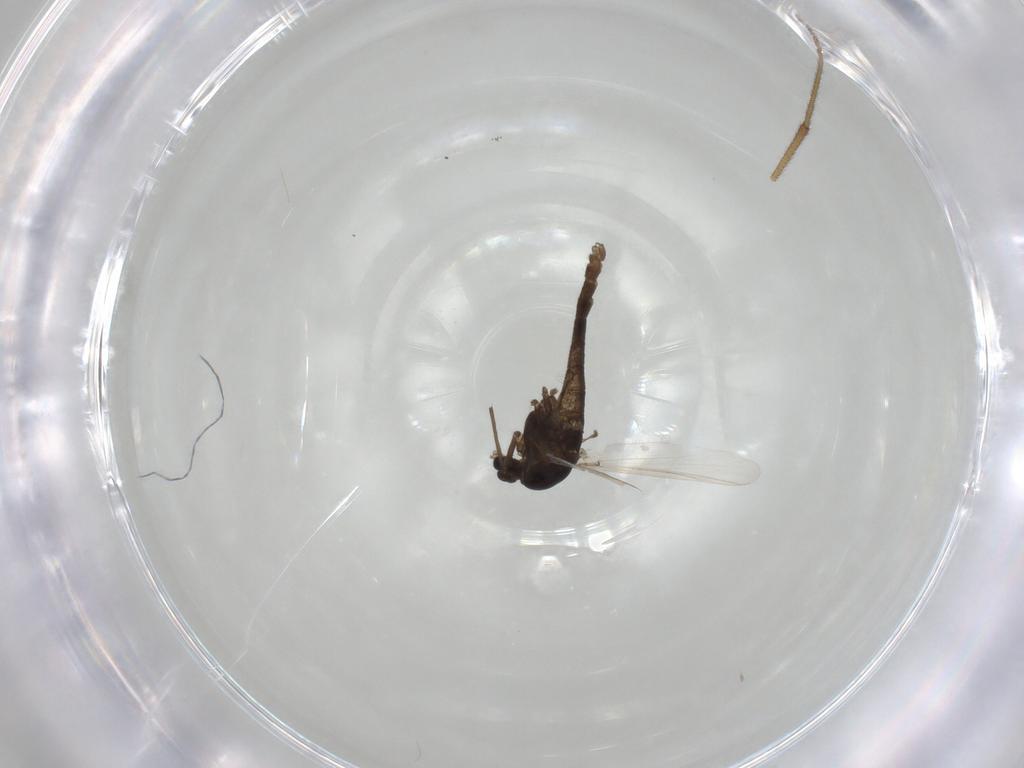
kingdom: Animalia
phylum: Arthropoda
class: Insecta
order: Diptera
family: Chironomidae
